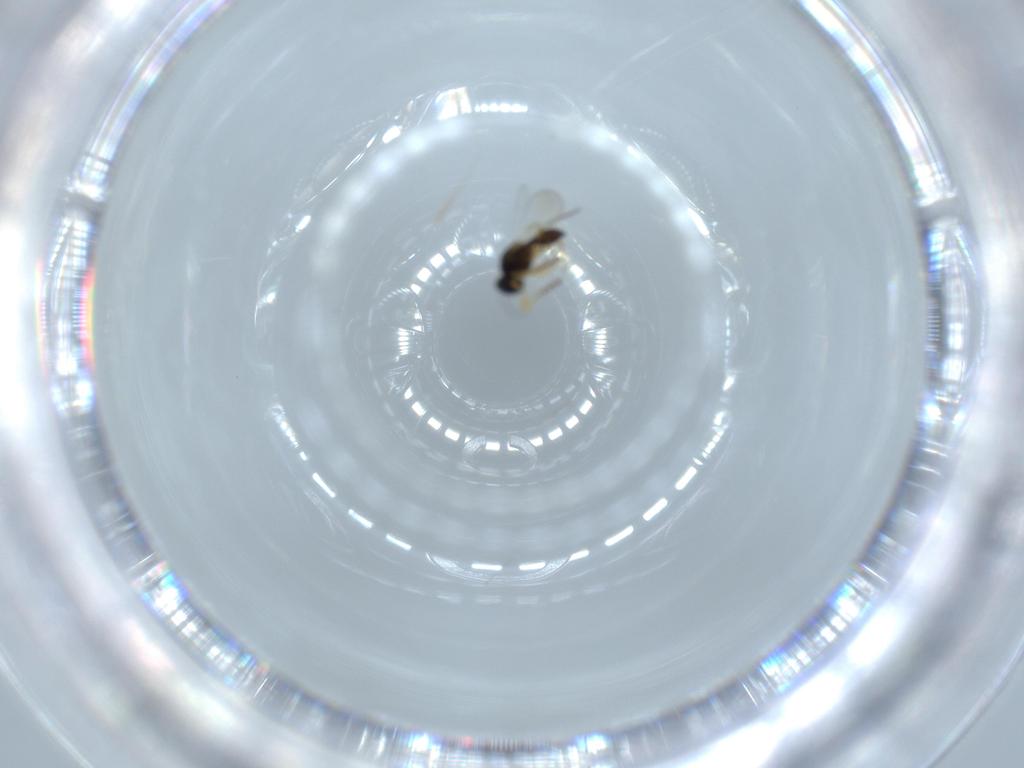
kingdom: Animalia
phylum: Arthropoda
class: Insecta
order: Hymenoptera
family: Platygastridae
